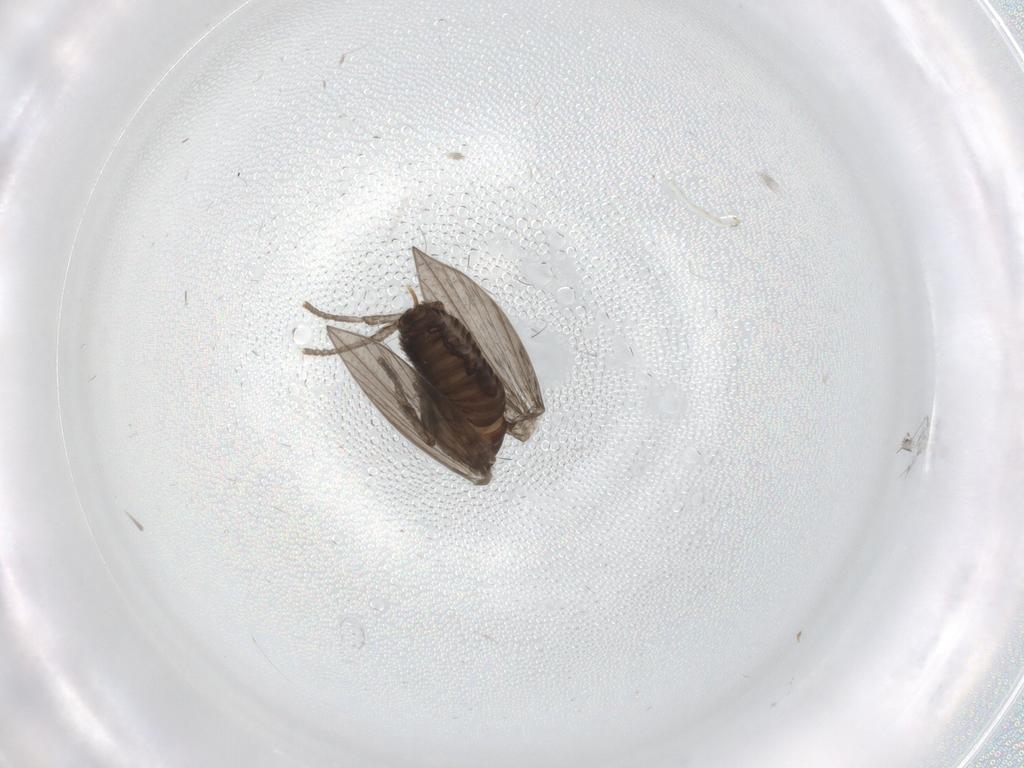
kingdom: Animalia
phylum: Arthropoda
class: Insecta
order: Diptera
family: Psychodidae
